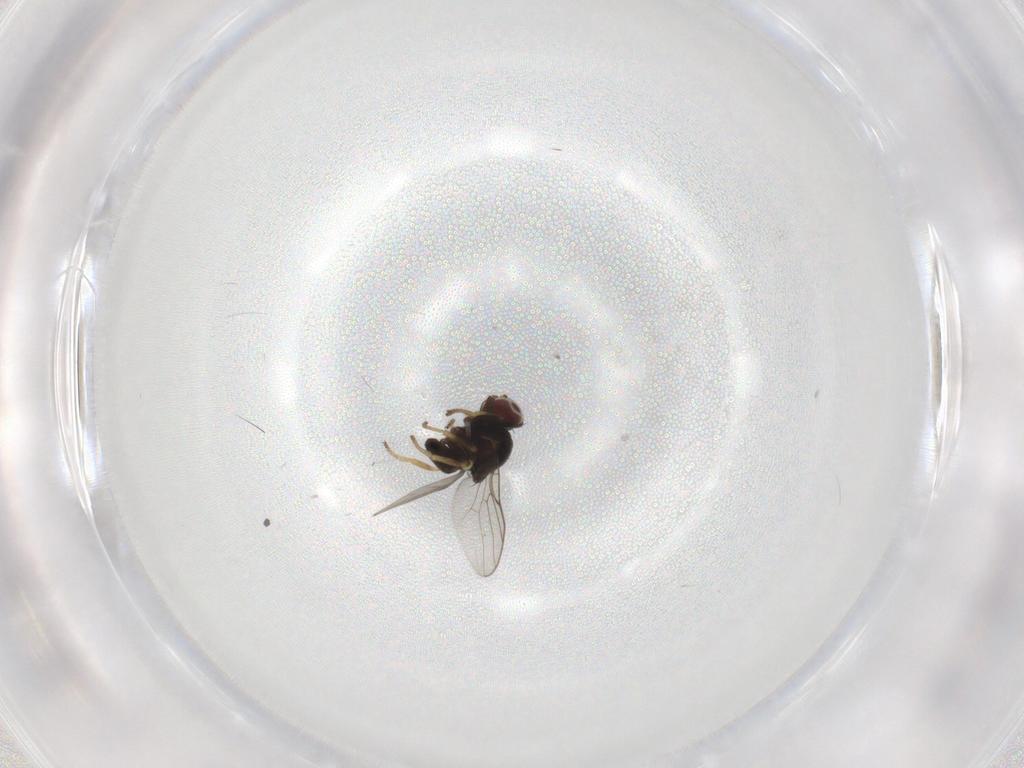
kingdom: Animalia
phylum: Arthropoda
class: Insecta
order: Diptera
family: Chloropidae
